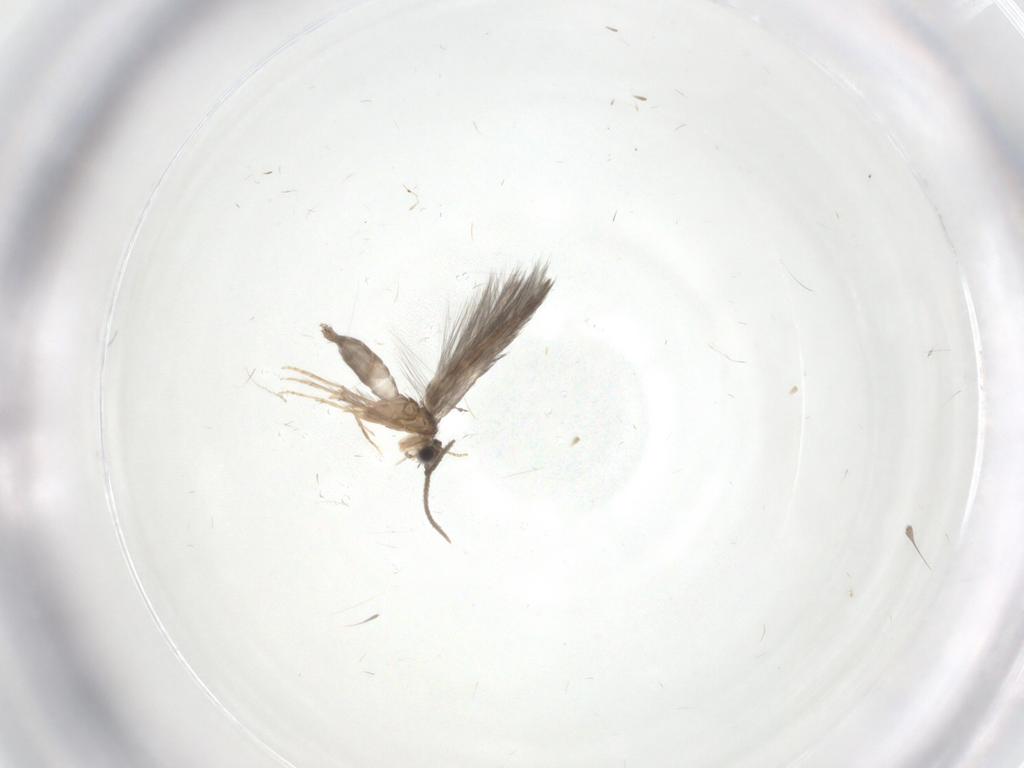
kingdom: Animalia
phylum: Arthropoda
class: Insecta
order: Trichoptera
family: Hydroptilidae
